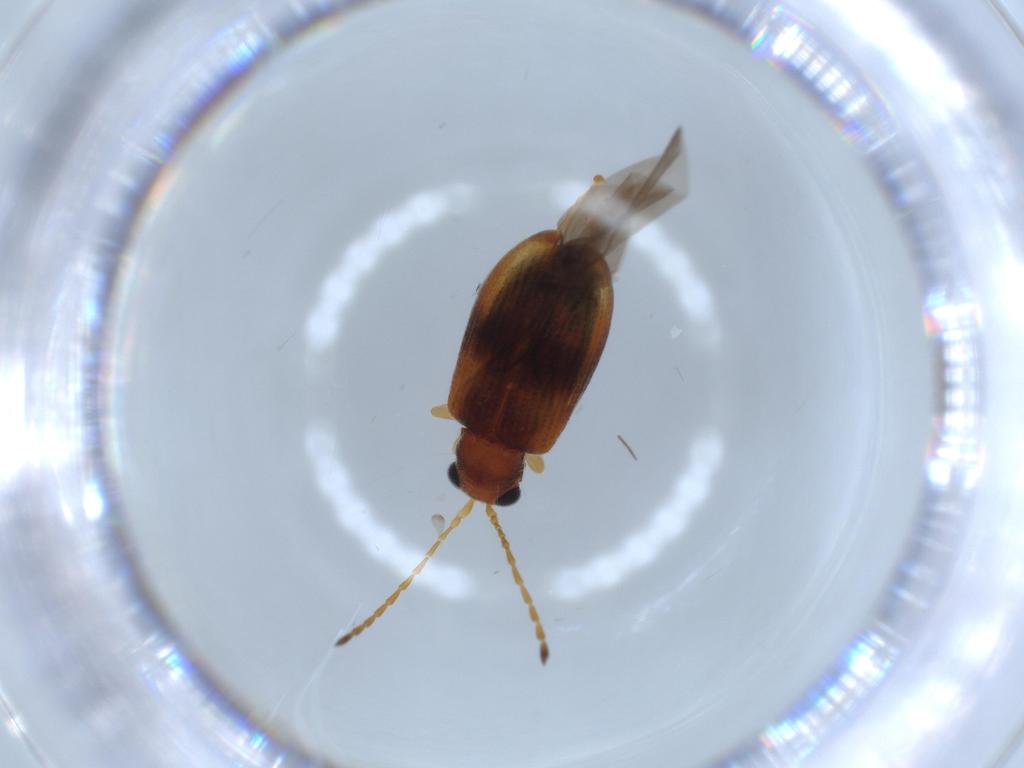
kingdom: Animalia
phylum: Arthropoda
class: Insecta
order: Coleoptera
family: Chrysomelidae
